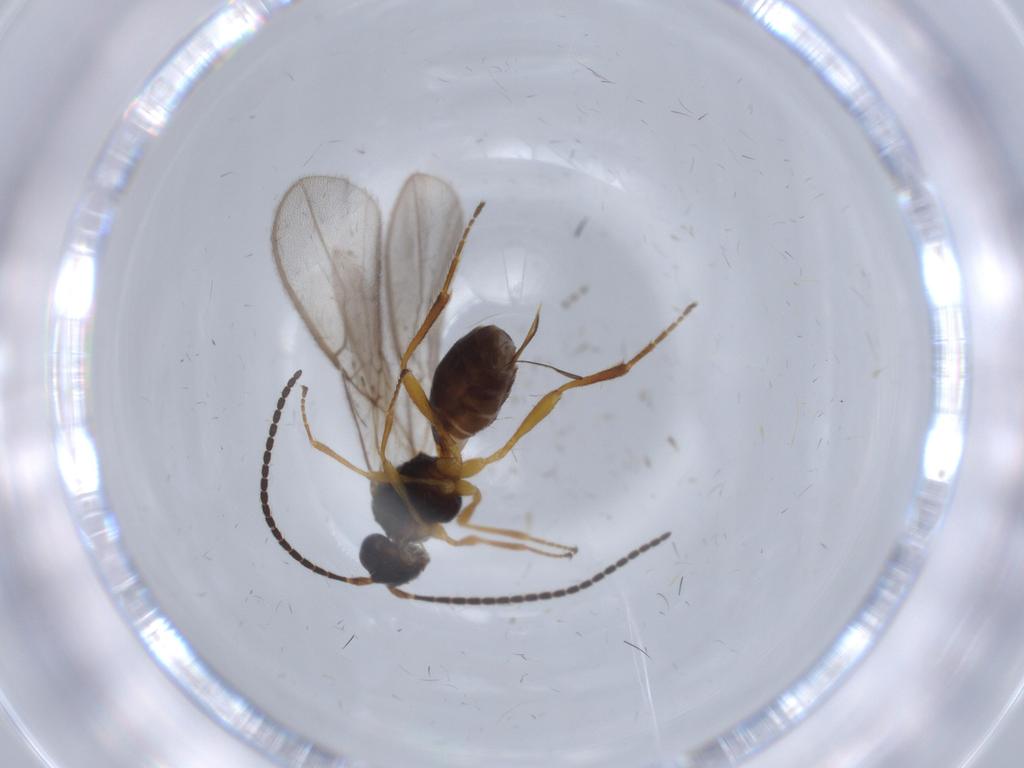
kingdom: Animalia
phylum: Arthropoda
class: Insecta
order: Hymenoptera
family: Braconidae
